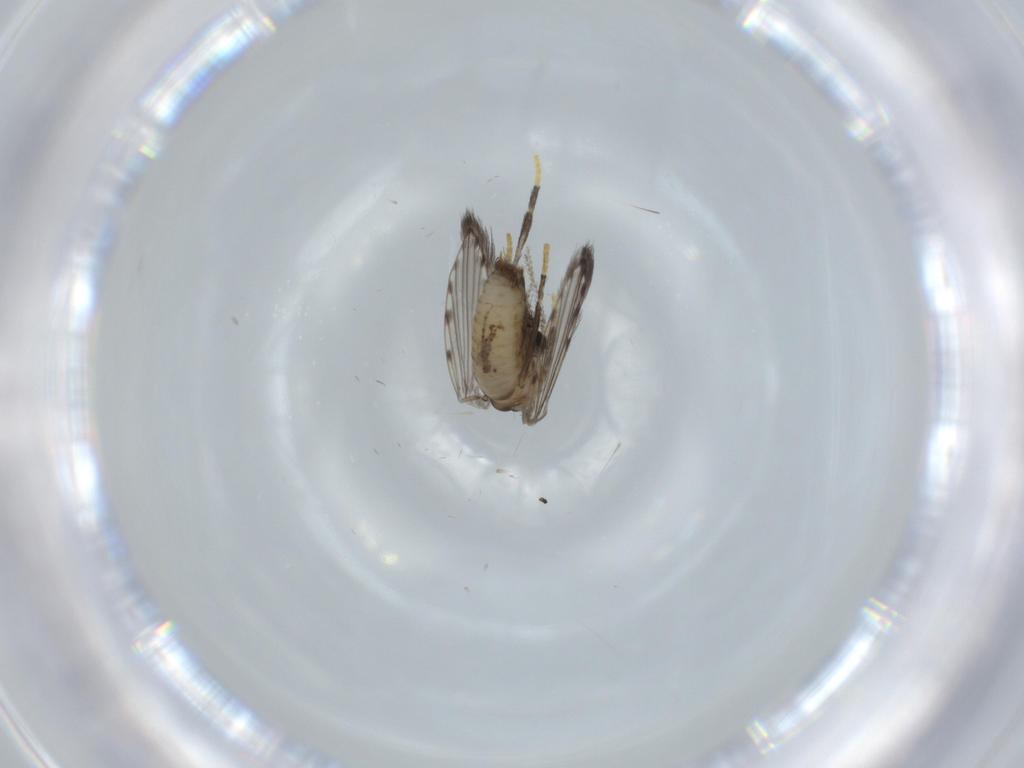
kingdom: Animalia
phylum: Arthropoda
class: Insecta
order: Diptera
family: Psychodidae
